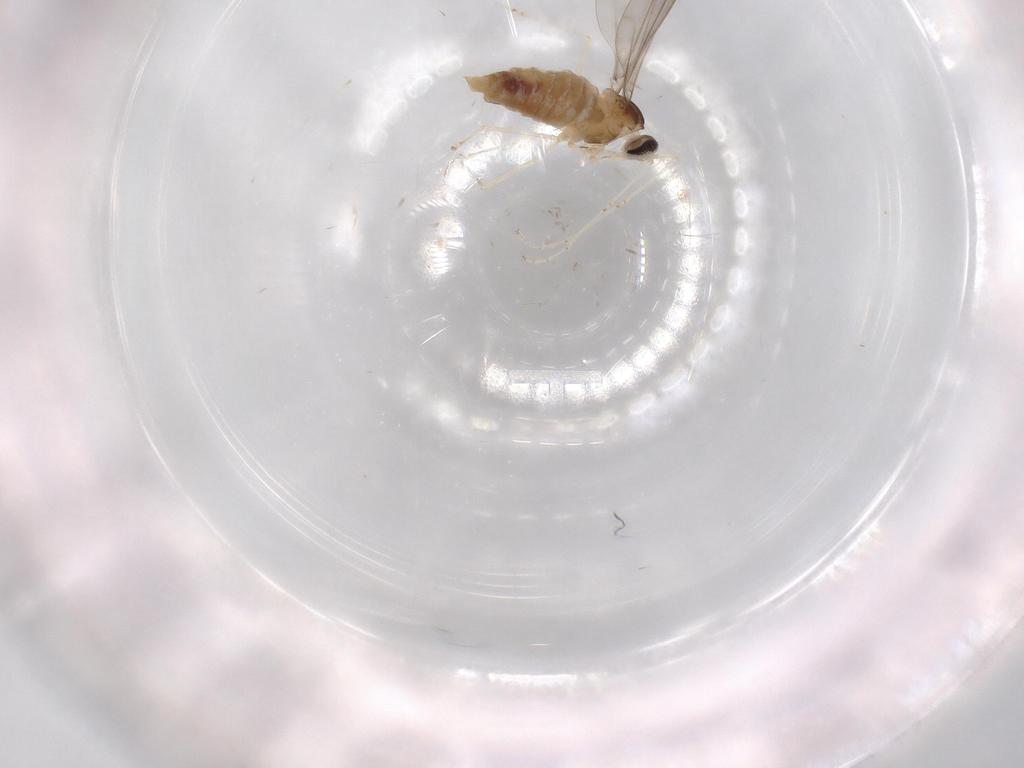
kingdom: Animalia
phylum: Arthropoda
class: Insecta
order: Diptera
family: Cecidomyiidae
